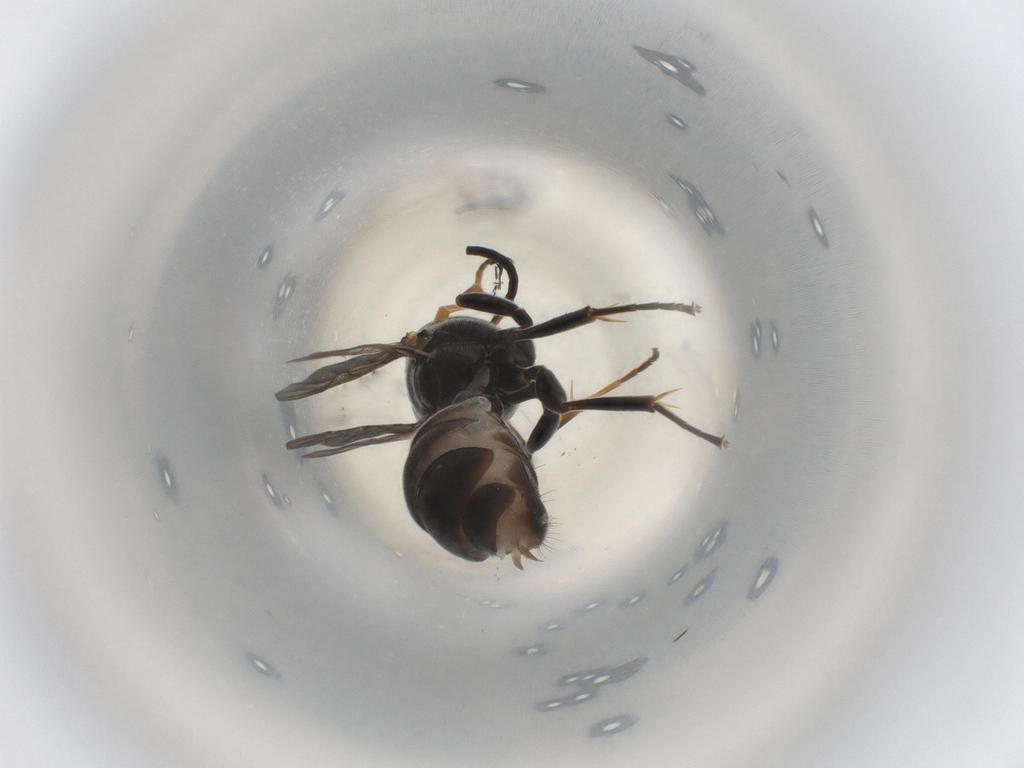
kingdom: Animalia
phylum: Arthropoda
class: Insecta
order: Hymenoptera
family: Crabronidae
